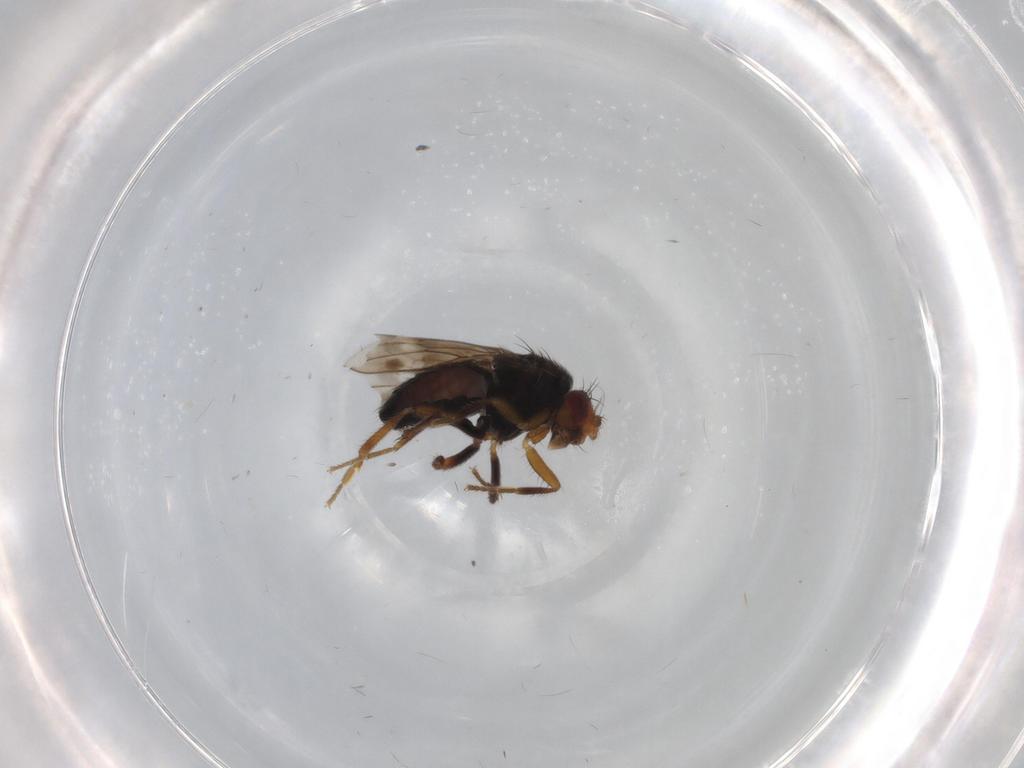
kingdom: Animalia
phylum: Arthropoda
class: Insecta
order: Diptera
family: Sphaeroceridae
